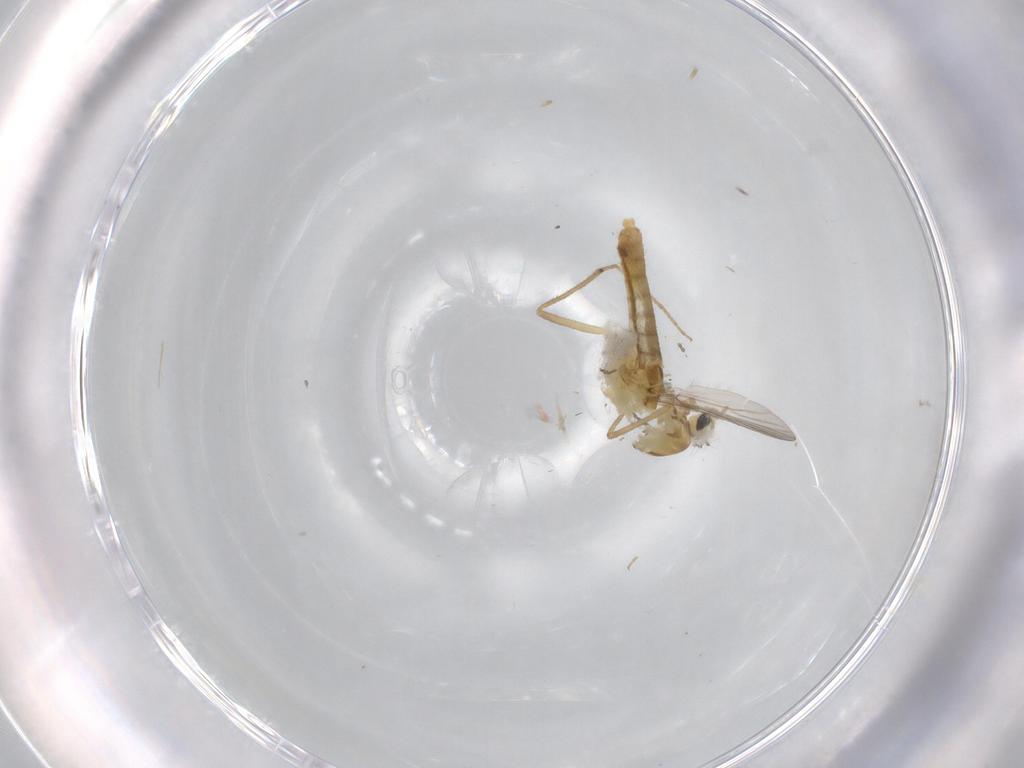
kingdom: Animalia
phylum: Arthropoda
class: Insecta
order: Diptera
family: Cecidomyiidae
